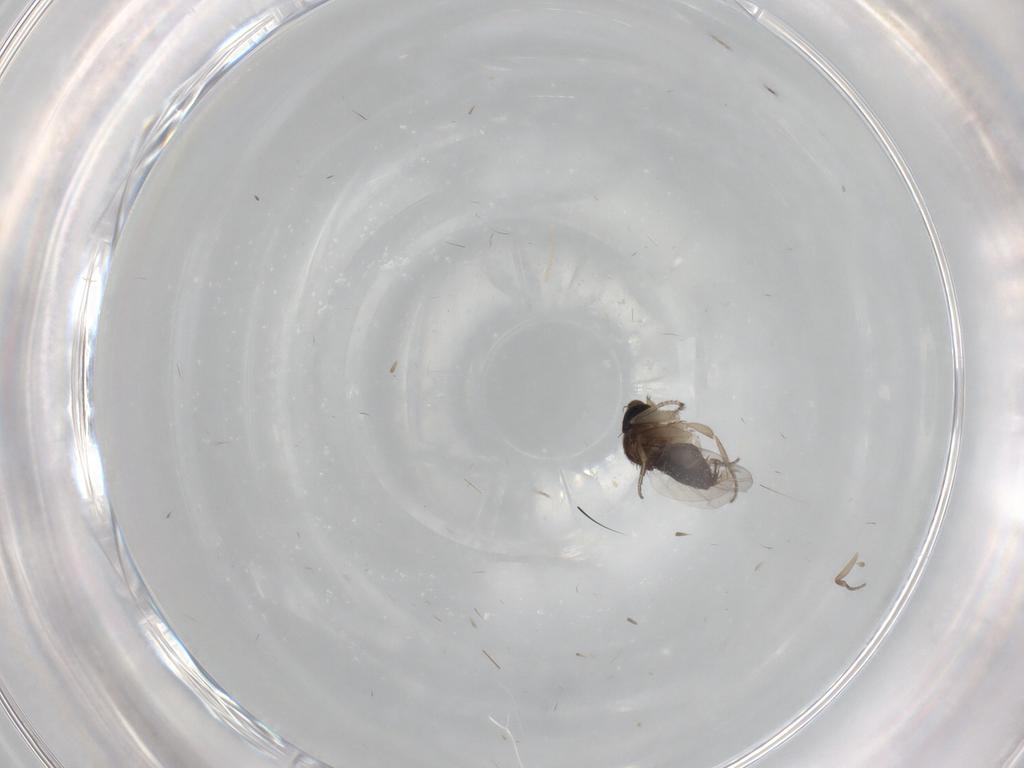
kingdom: Animalia
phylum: Arthropoda
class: Insecta
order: Diptera
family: Phoridae
